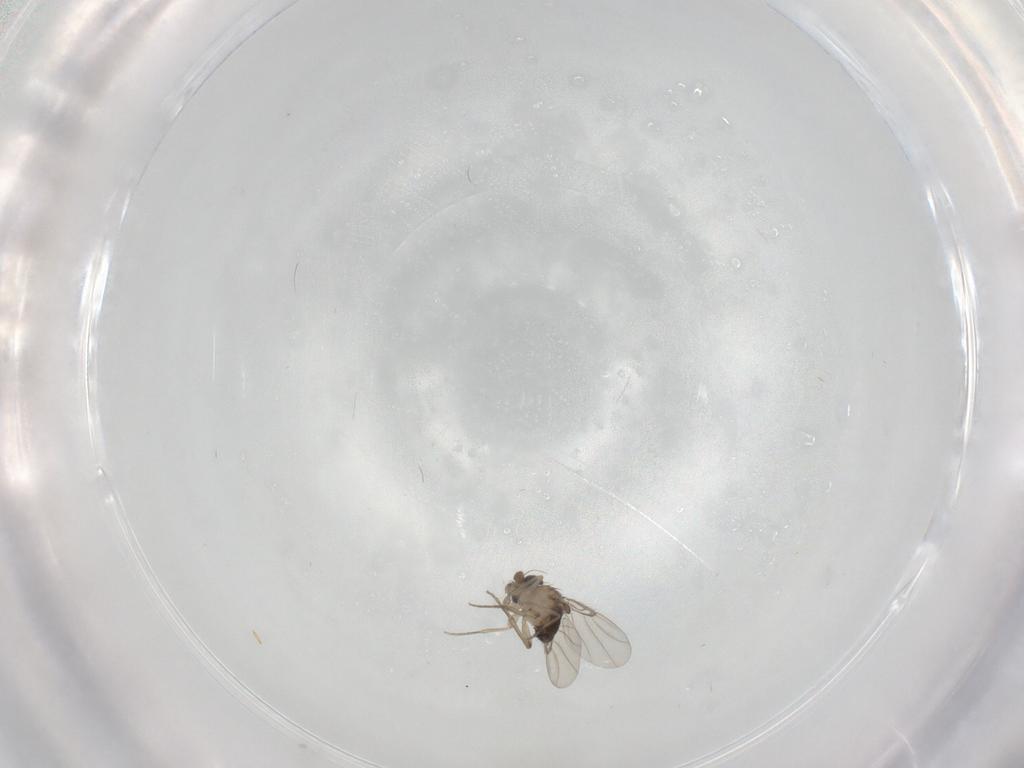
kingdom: Animalia
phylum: Arthropoda
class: Insecta
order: Diptera
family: Phoridae
